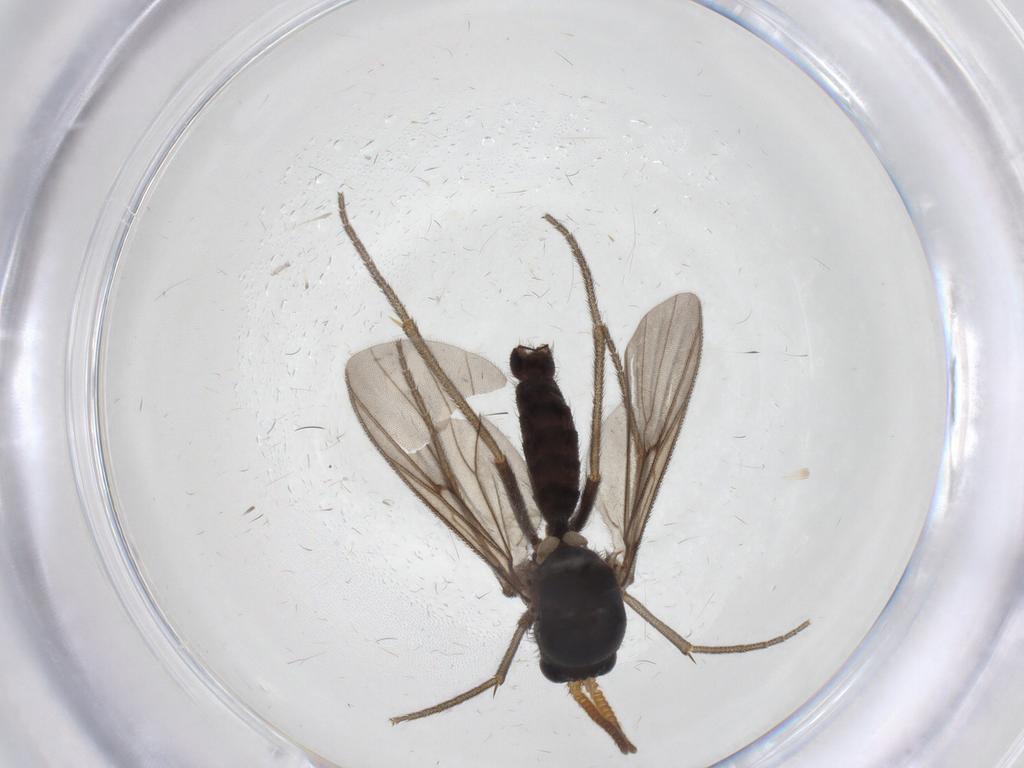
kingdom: Animalia
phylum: Arthropoda
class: Insecta
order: Diptera
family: Mycetophilidae
